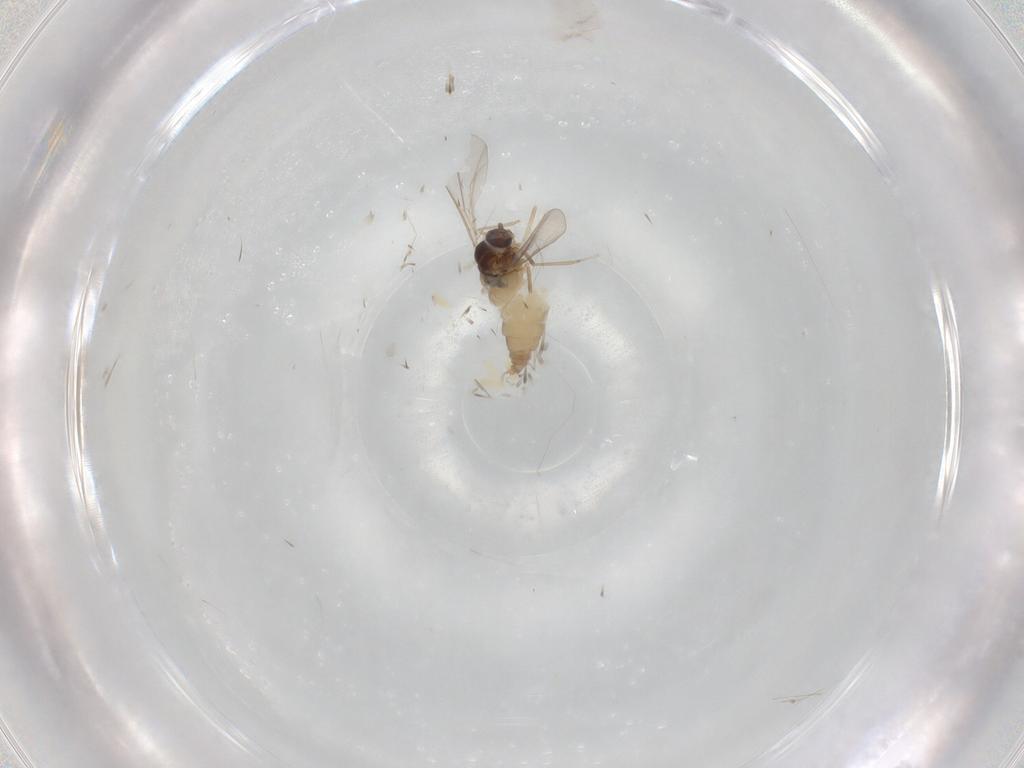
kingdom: Animalia
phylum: Arthropoda
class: Insecta
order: Diptera
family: Cecidomyiidae
